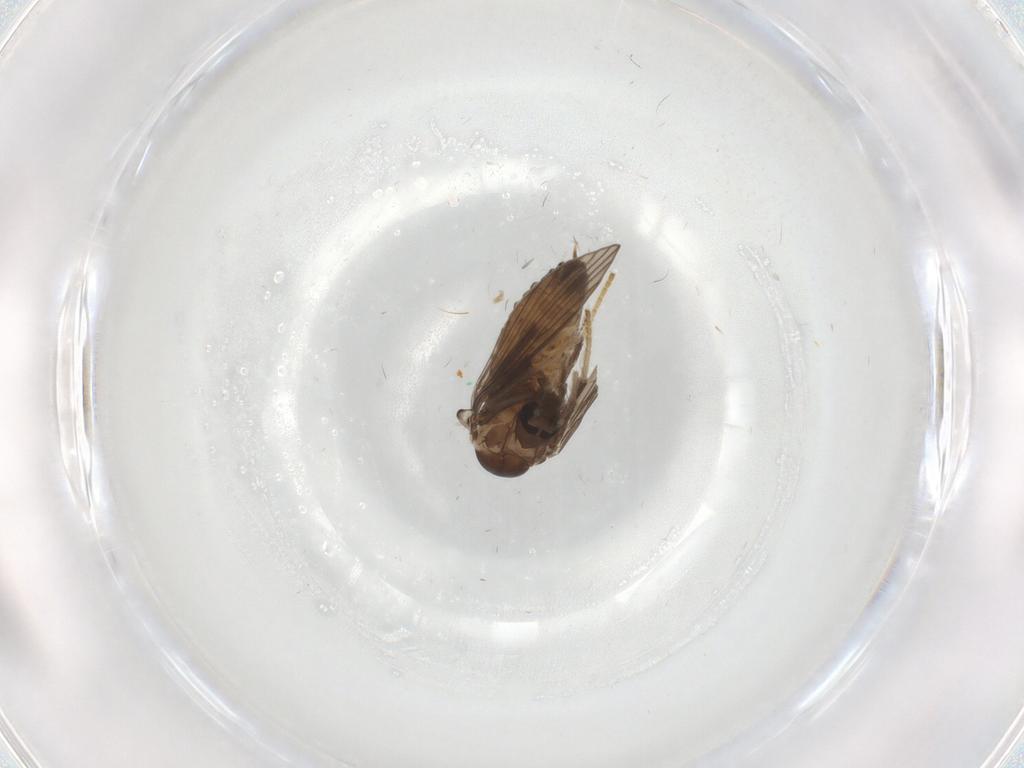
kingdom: Animalia
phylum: Arthropoda
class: Insecta
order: Diptera
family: Psychodidae
